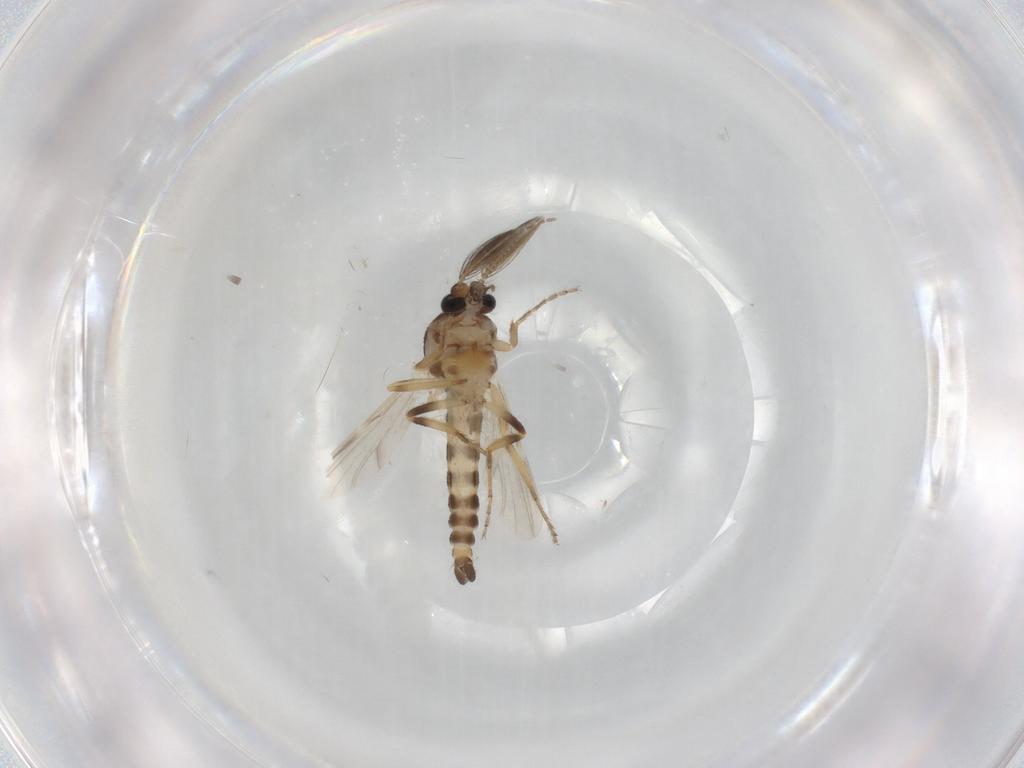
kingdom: Animalia
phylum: Arthropoda
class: Insecta
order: Diptera
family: Ceratopogonidae
